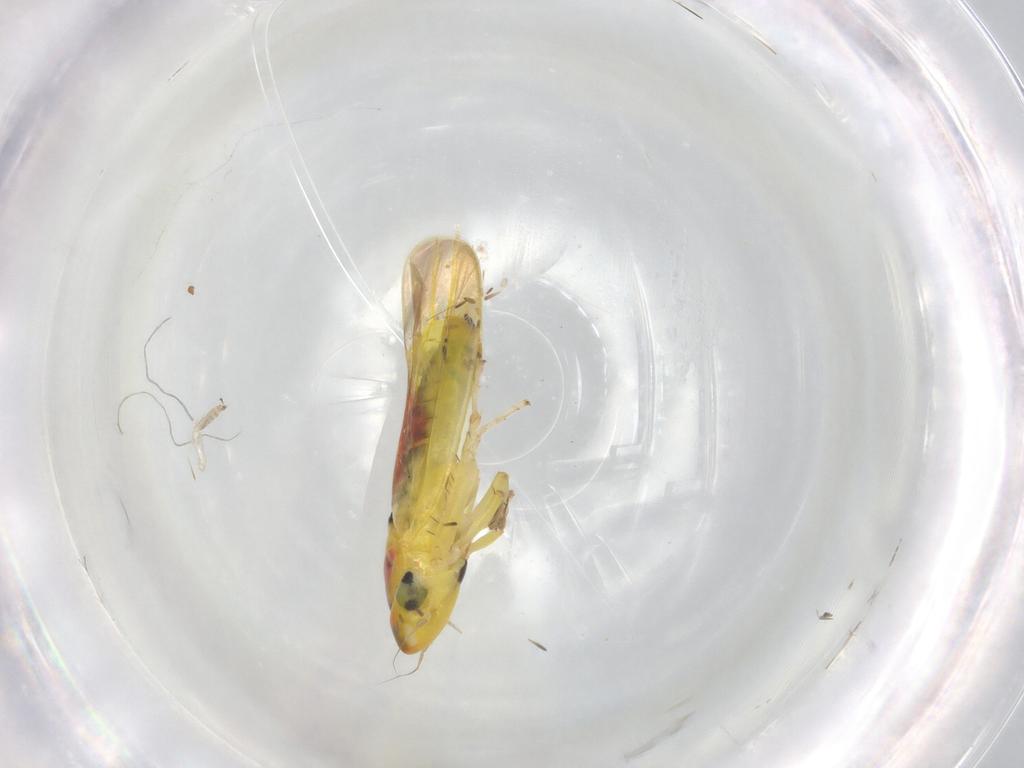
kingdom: Animalia
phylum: Arthropoda
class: Insecta
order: Hemiptera
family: Cicadellidae
